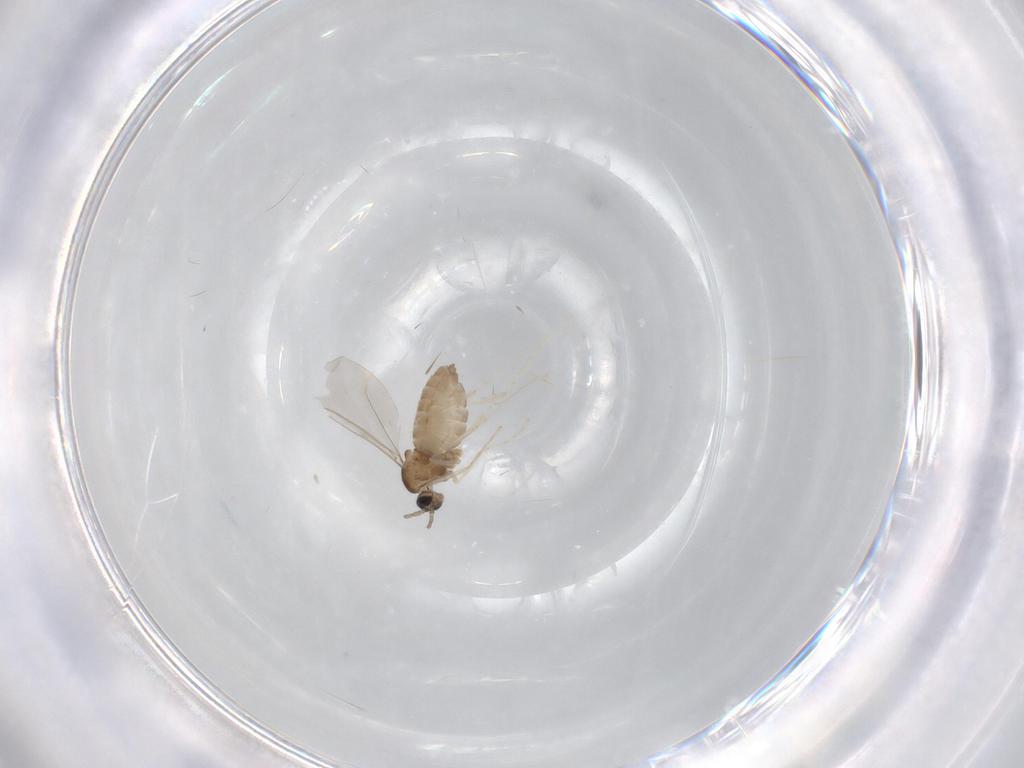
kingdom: Animalia
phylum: Arthropoda
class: Insecta
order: Diptera
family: Cecidomyiidae
